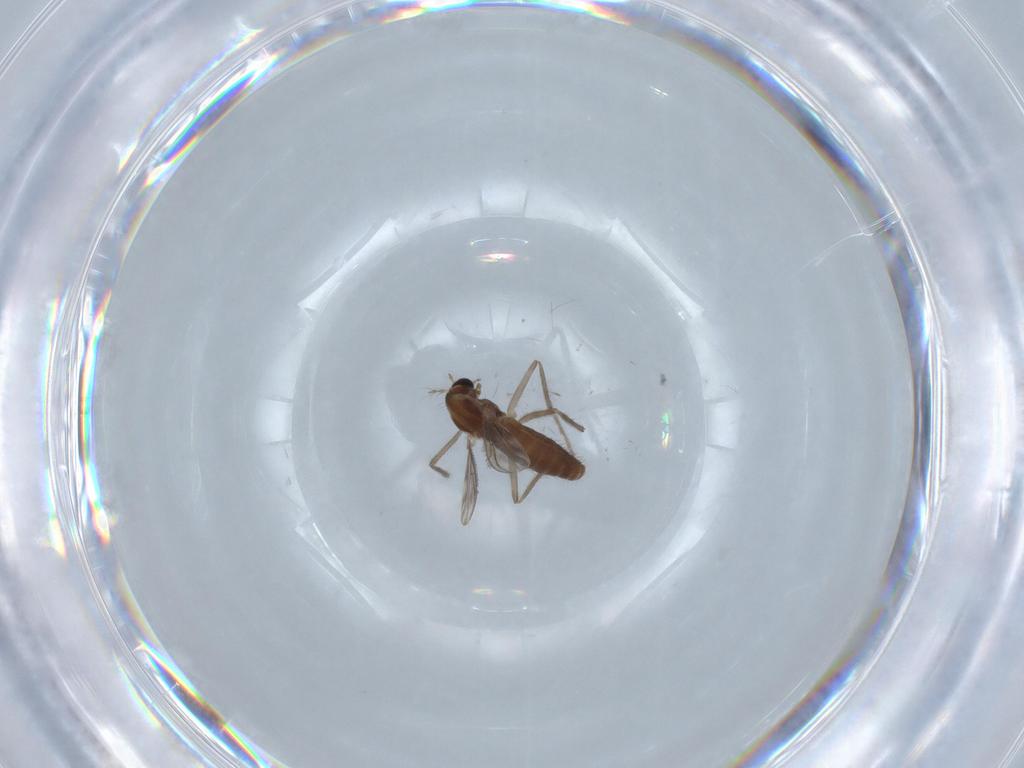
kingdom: Animalia
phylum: Arthropoda
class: Insecta
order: Diptera
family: Chironomidae
